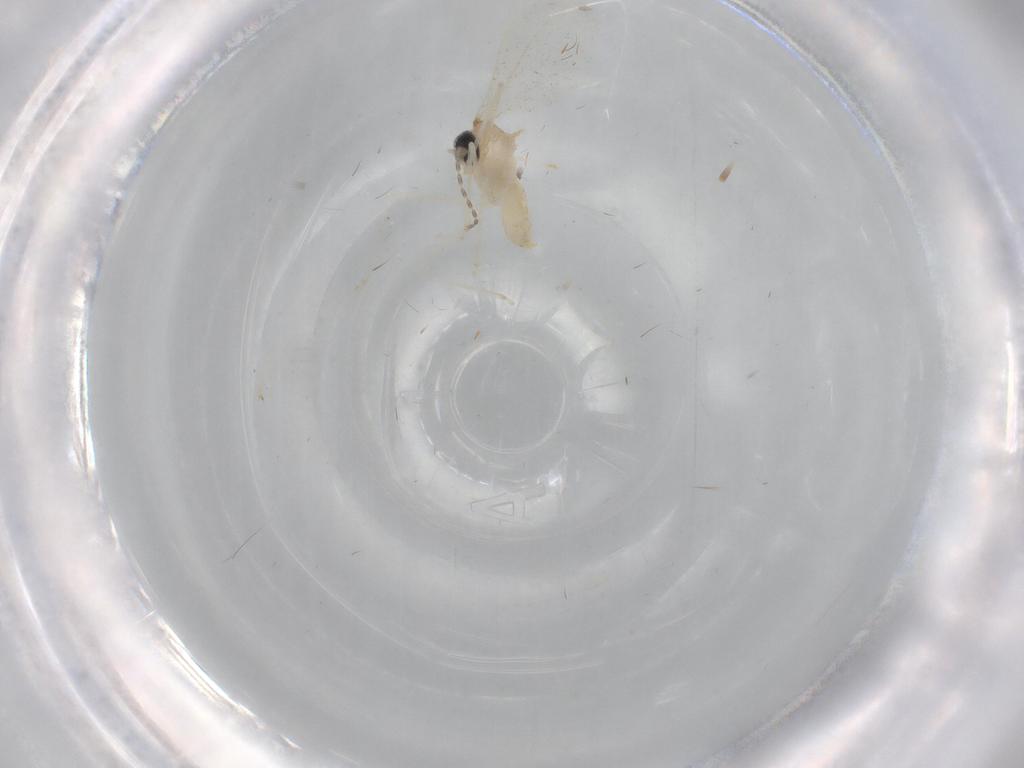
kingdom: Animalia
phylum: Arthropoda
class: Insecta
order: Diptera
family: Cecidomyiidae
